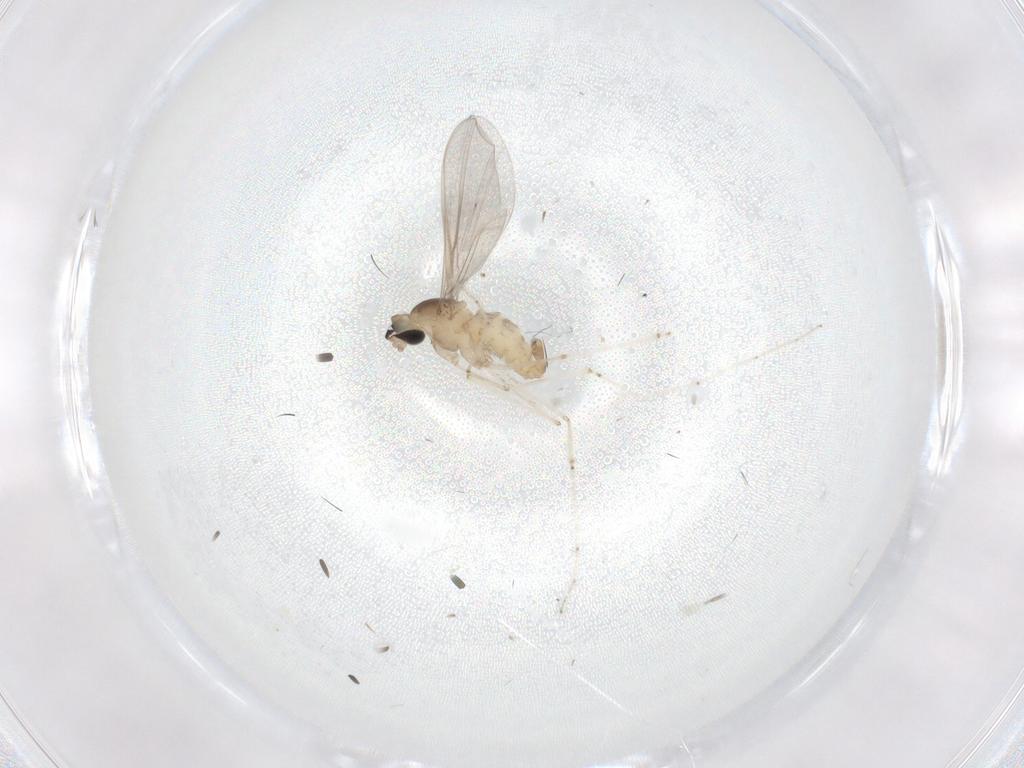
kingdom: Animalia
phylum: Arthropoda
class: Insecta
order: Diptera
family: Cecidomyiidae
